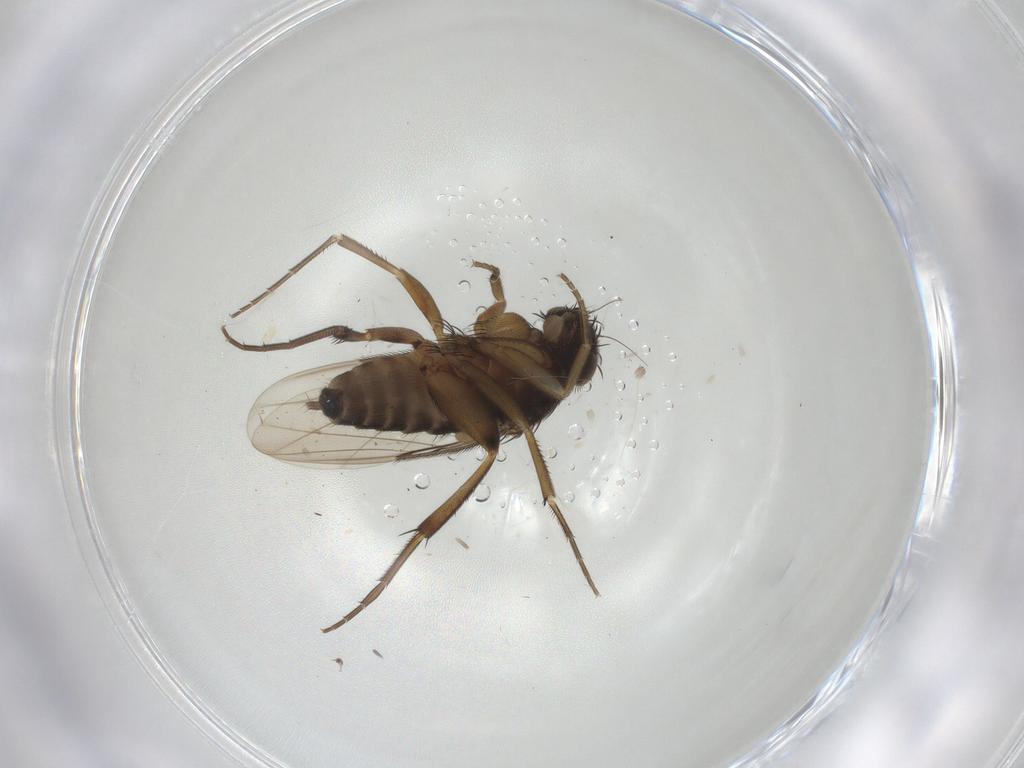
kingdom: Animalia
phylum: Arthropoda
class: Insecta
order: Diptera
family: Phoridae
